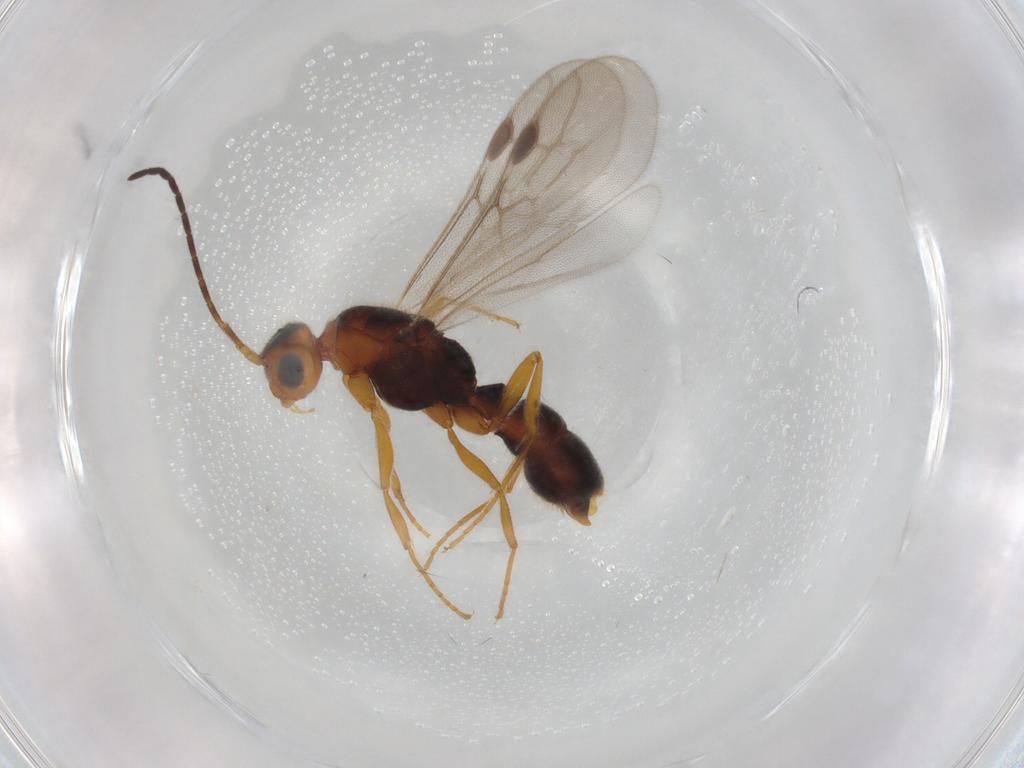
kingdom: Animalia
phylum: Arthropoda
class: Insecta
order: Hymenoptera
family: Formicidae
